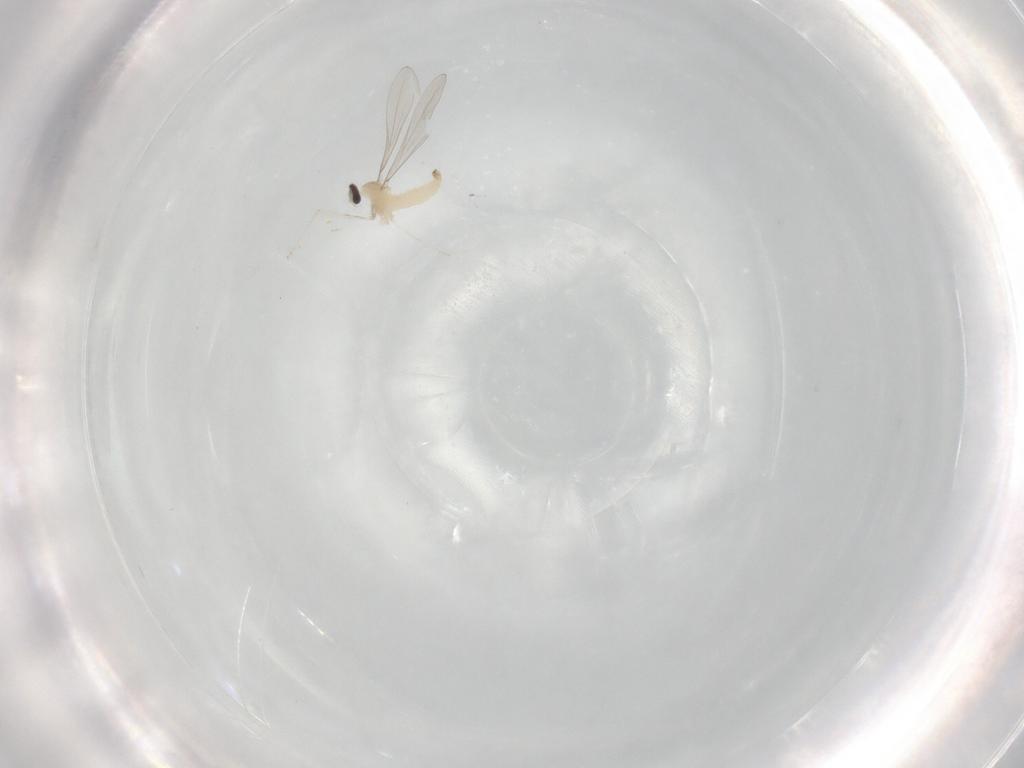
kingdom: Animalia
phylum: Arthropoda
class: Insecta
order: Diptera
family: Cecidomyiidae
